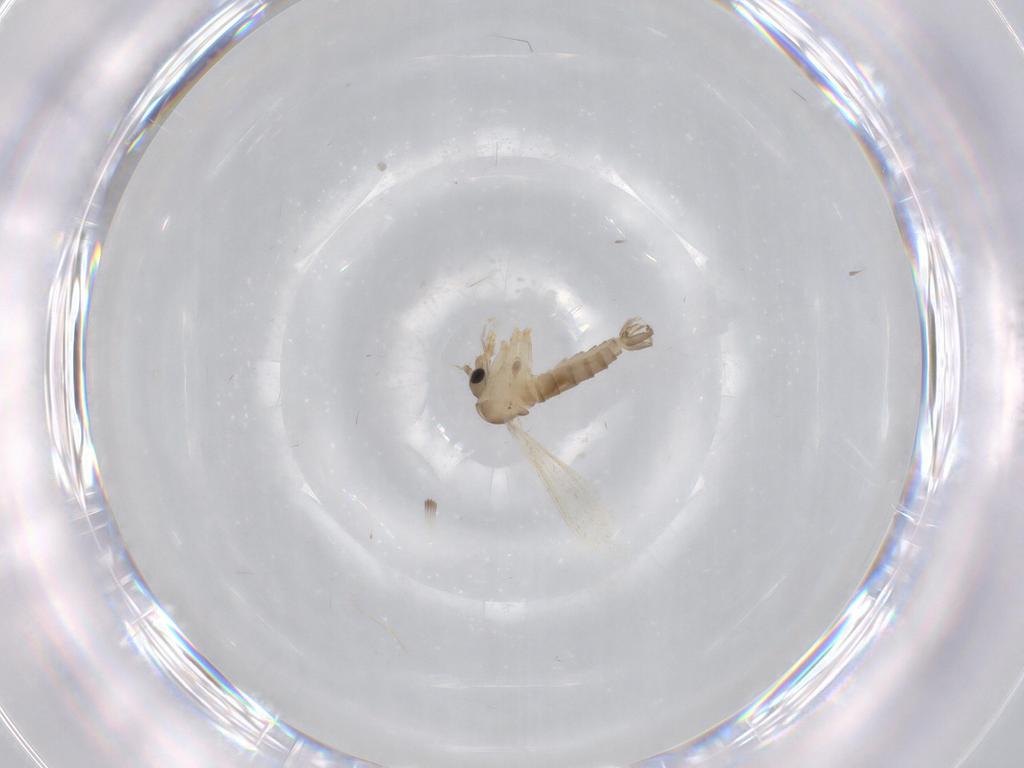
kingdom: Animalia
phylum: Arthropoda
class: Insecta
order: Diptera
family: Psychodidae
